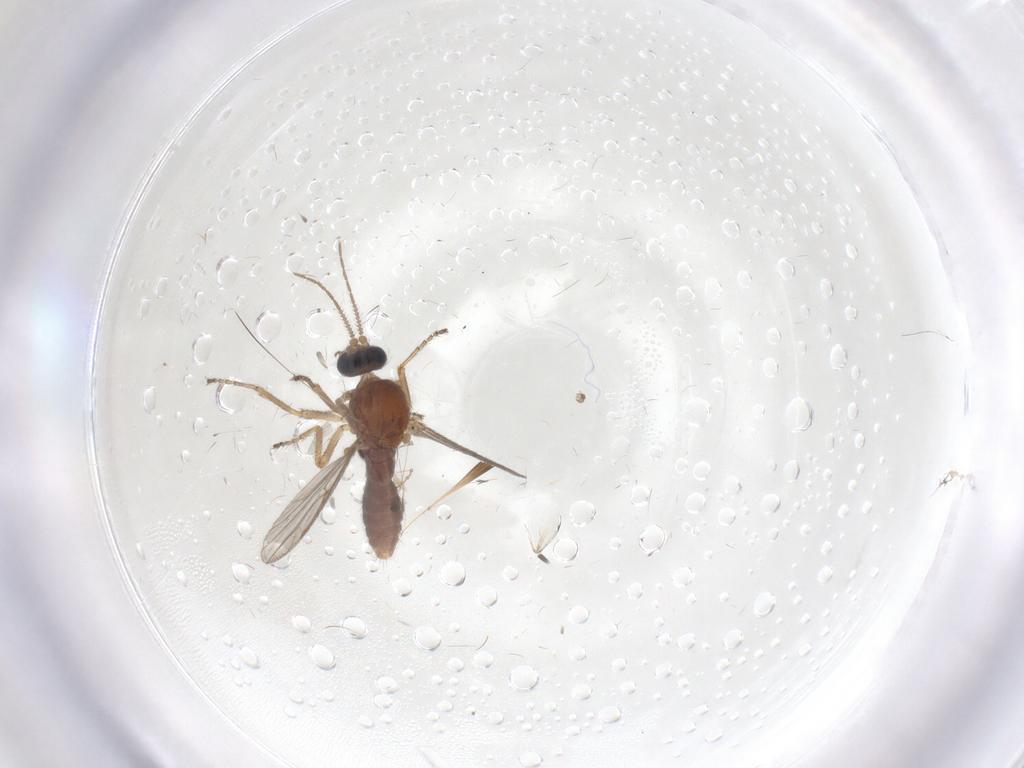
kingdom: Animalia
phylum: Arthropoda
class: Insecta
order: Diptera
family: Ceratopogonidae
